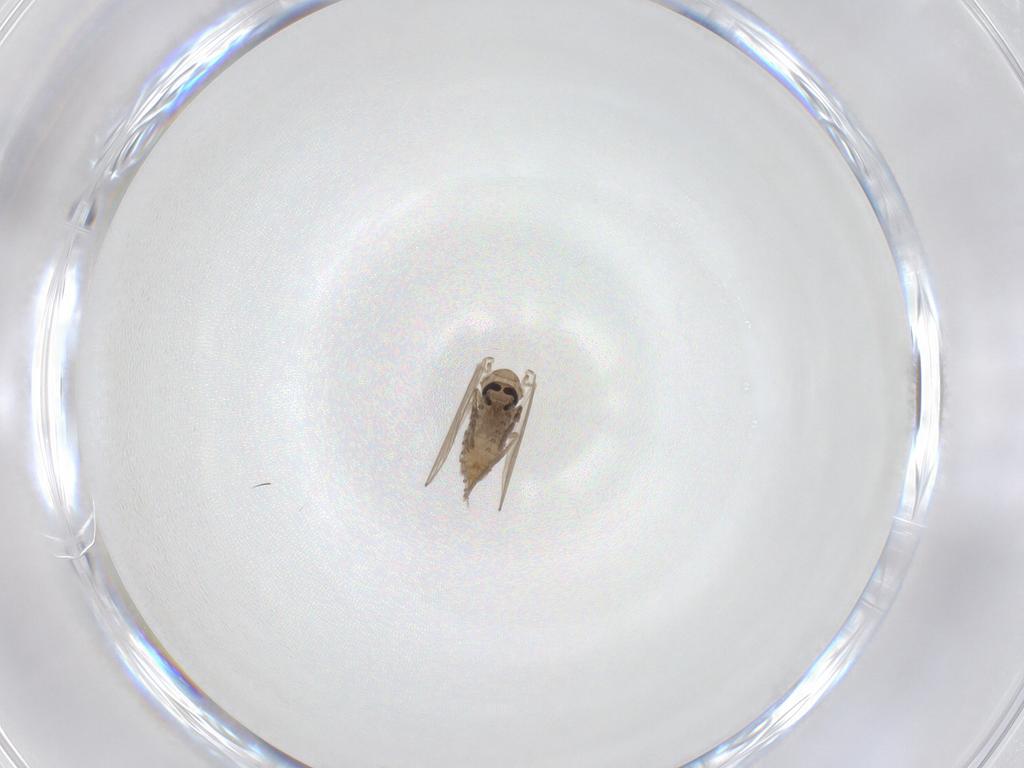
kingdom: Animalia
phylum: Arthropoda
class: Insecta
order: Diptera
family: Psychodidae
